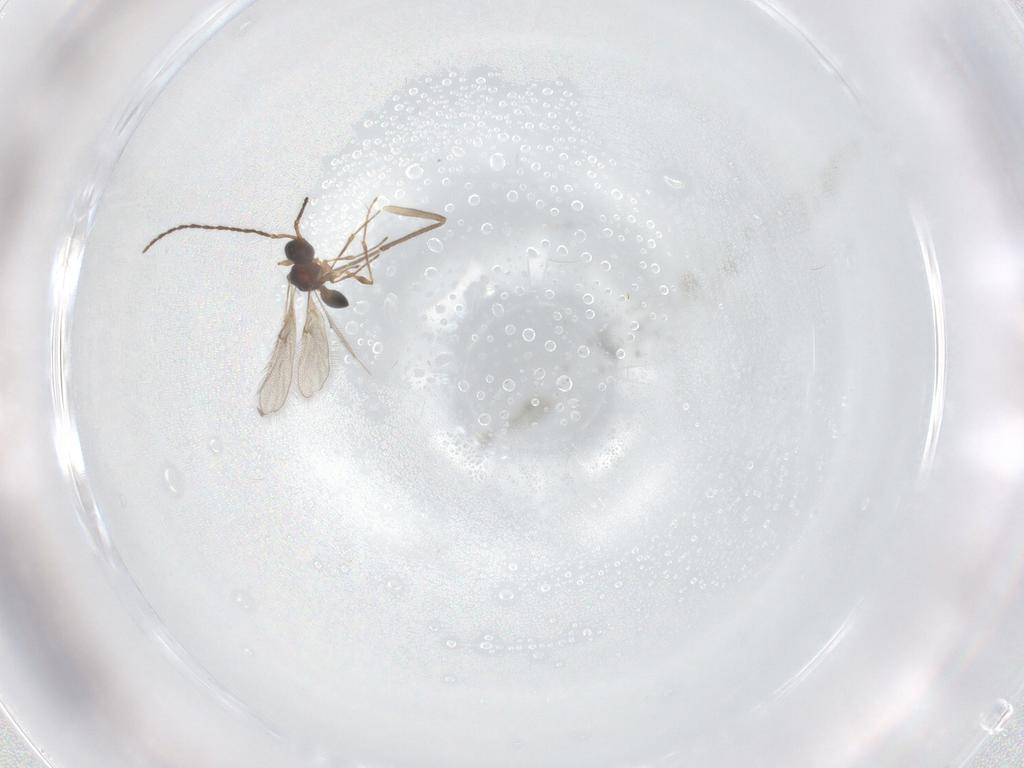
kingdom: Animalia
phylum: Arthropoda
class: Insecta
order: Hymenoptera
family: Diapriidae
